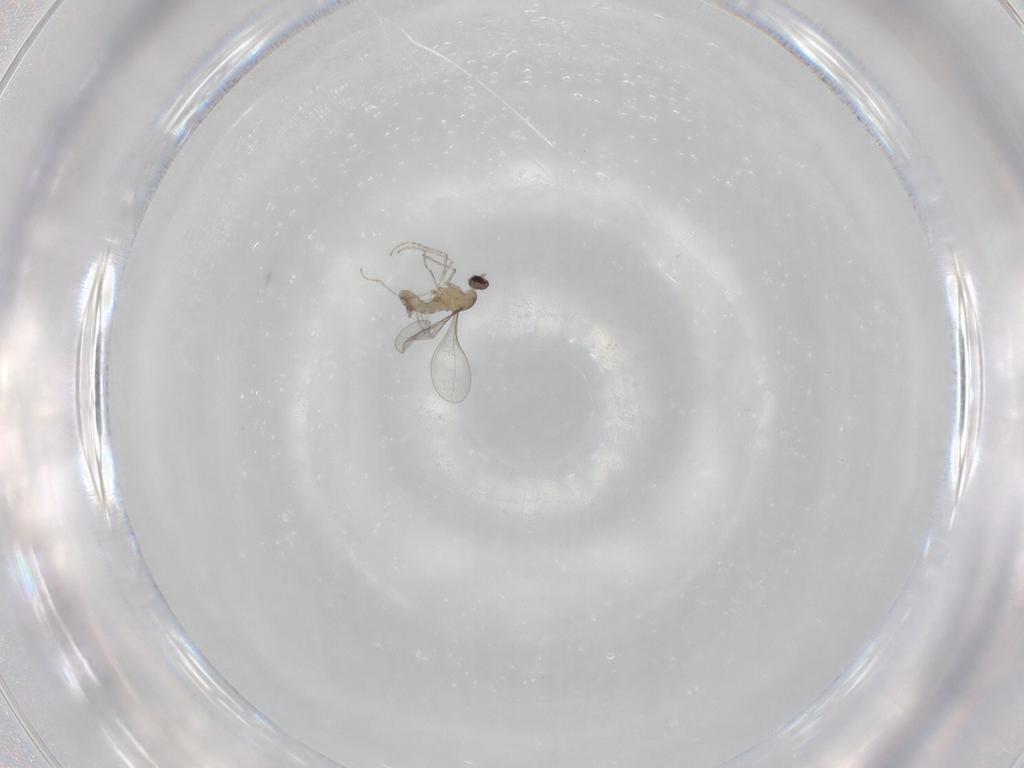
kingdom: Animalia
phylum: Arthropoda
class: Insecta
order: Diptera
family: Cecidomyiidae
